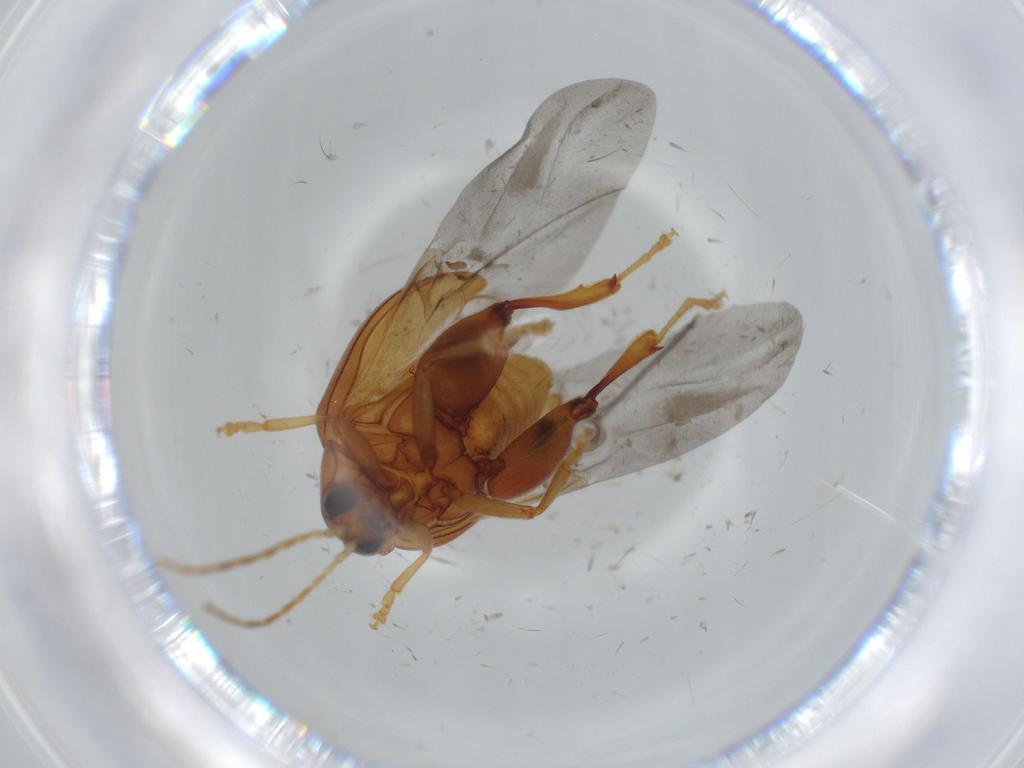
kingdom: Animalia
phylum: Arthropoda
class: Insecta
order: Coleoptera
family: Chrysomelidae
